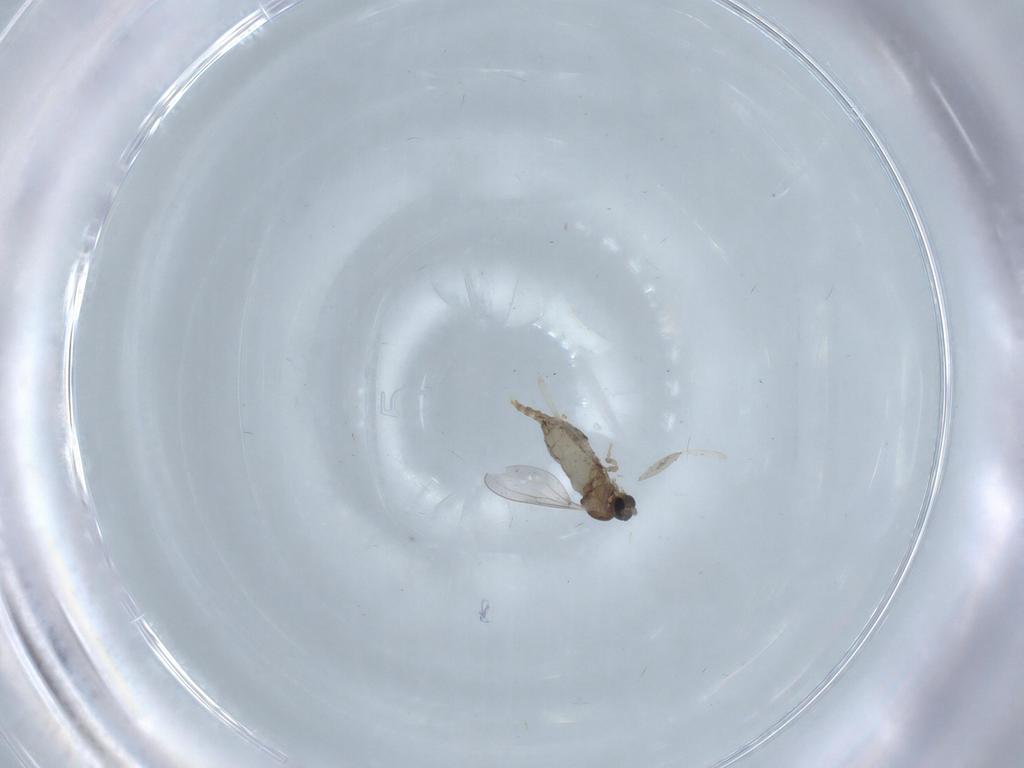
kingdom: Animalia
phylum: Arthropoda
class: Insecta
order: Diptera
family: Cecidomyiidae
